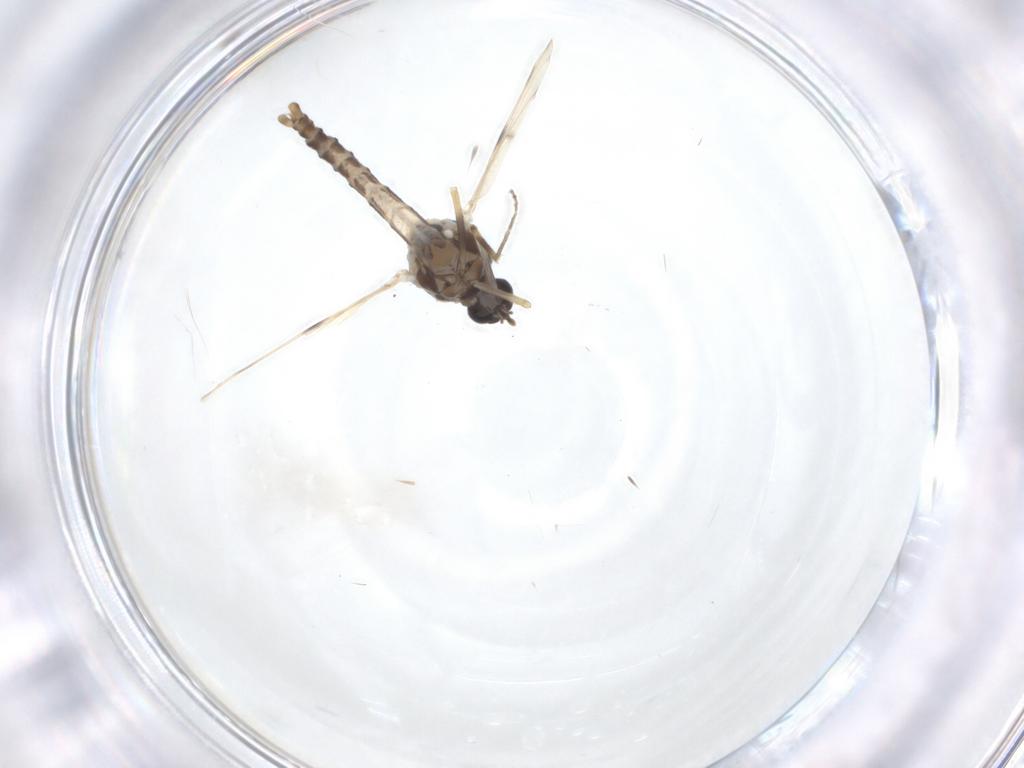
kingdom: Animalia
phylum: Arthropoda
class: Insecta
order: Diptera
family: Ceratopogonidae
